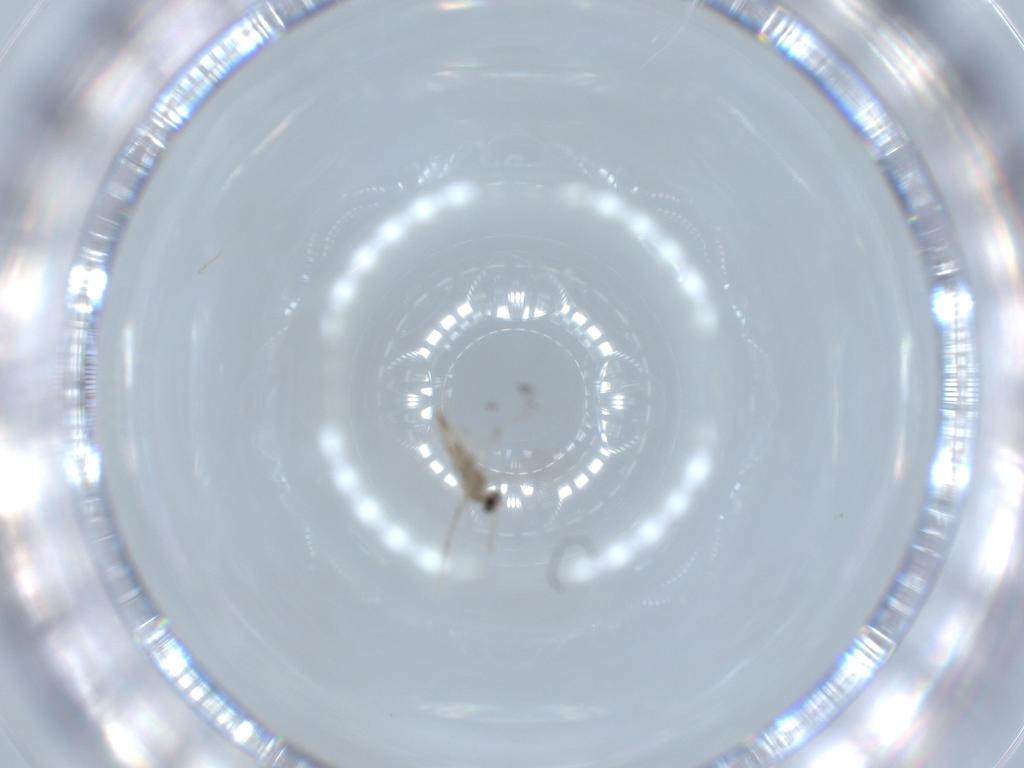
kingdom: Animalia
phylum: Arthropoda
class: Insecta
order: Diptera
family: Cecidomyiidae
